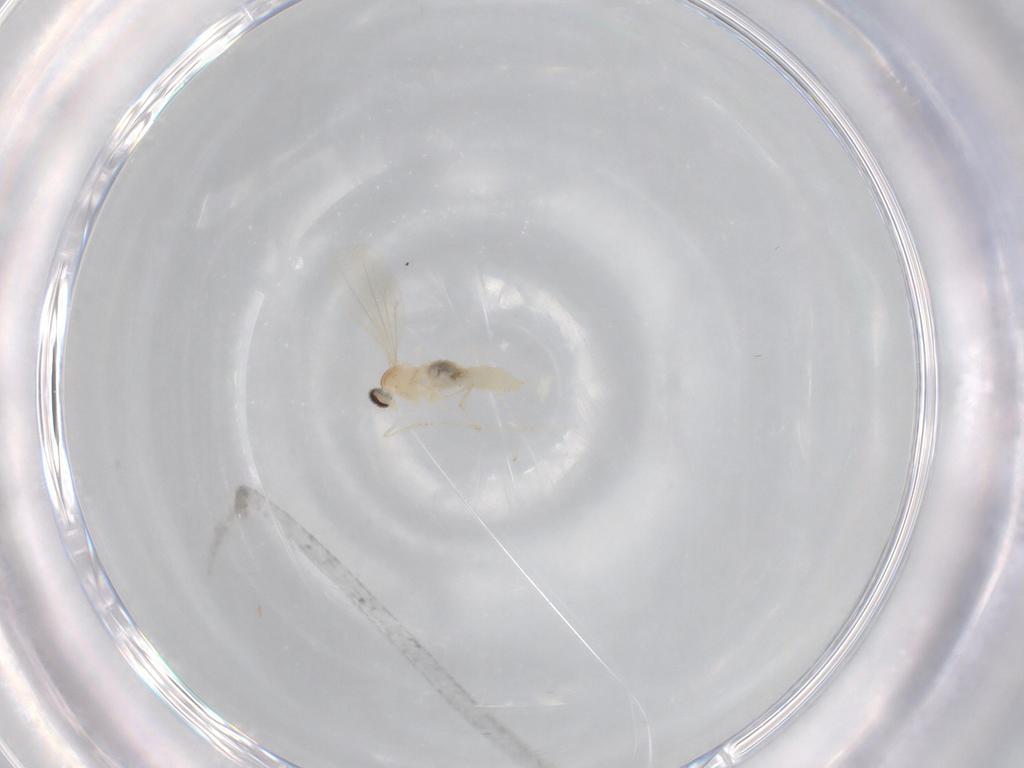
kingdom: Animalia
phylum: Arthropoda
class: Insecta
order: Diptera
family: Cecidomyiidae
